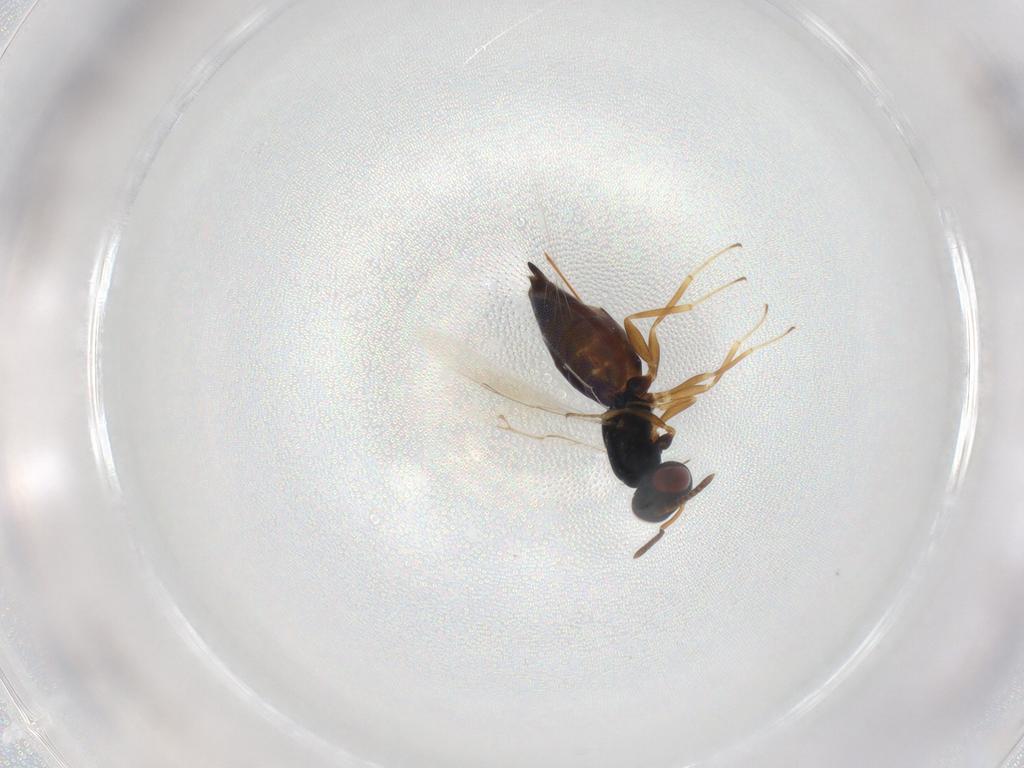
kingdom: Animalia
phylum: Arthropoda
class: Insecta
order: Hymenoptera
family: Pteromalidae
